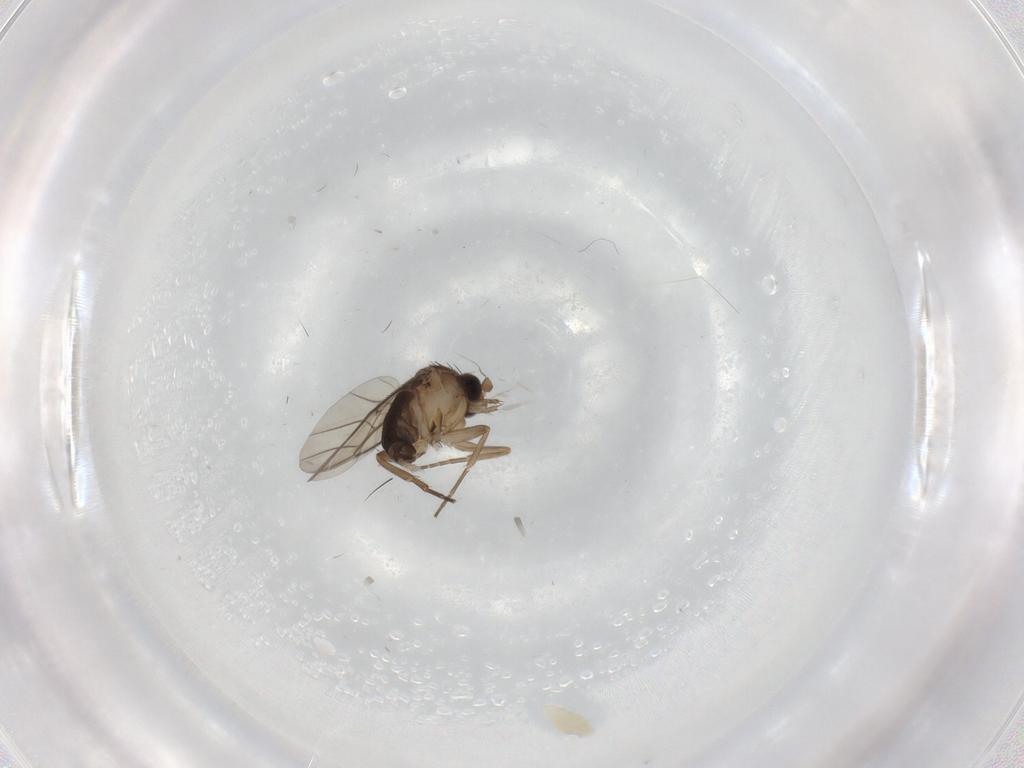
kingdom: Animalia
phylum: Arthropoda
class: Insecta
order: Diptera
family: Phoridae
